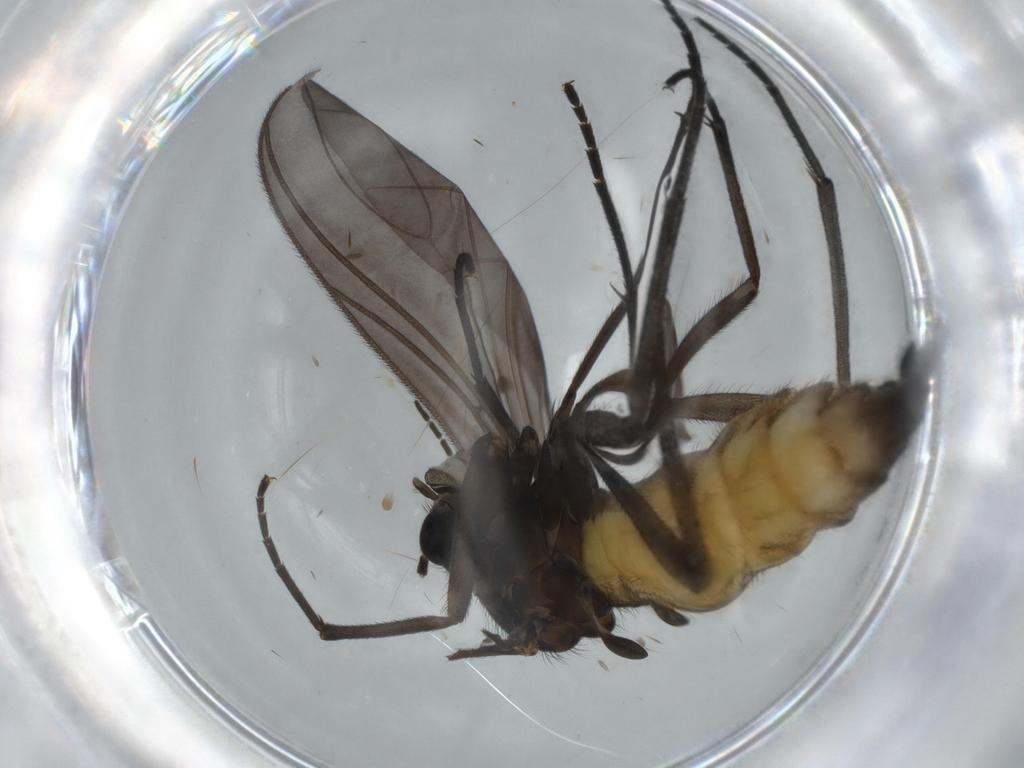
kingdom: Animalia
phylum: Arthropoda
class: Insecta
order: Diptera
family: Ceratopogonidae
